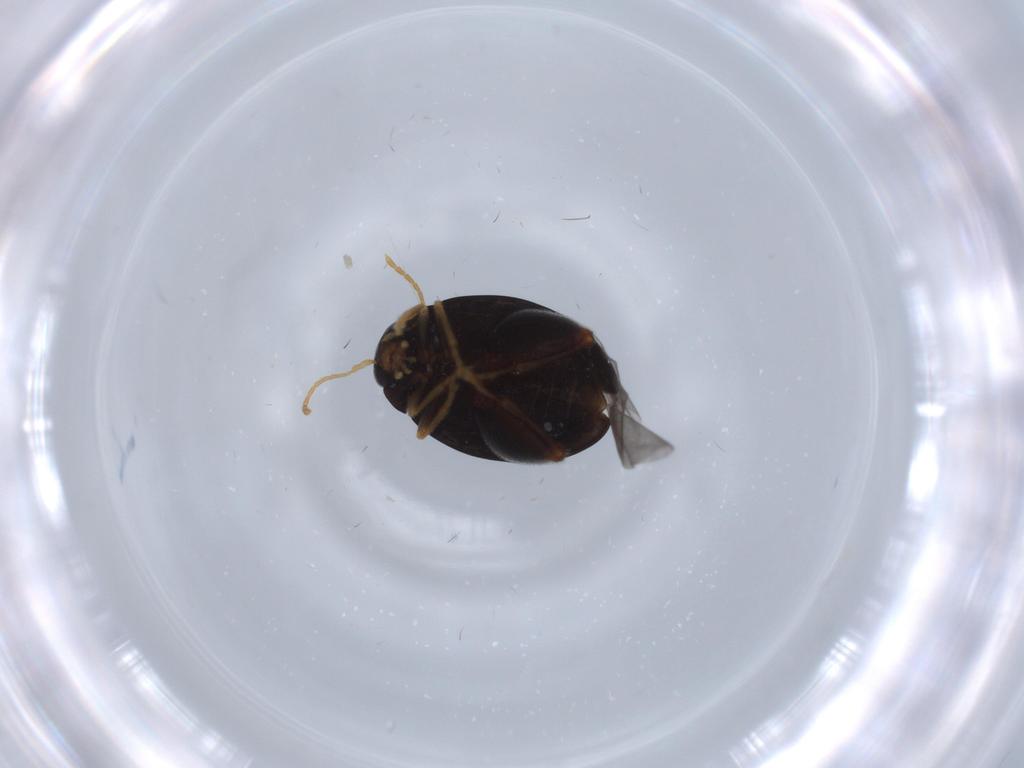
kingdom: Animalia
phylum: Arthropoda
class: Insecta
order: Coleoptera
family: Chrysomelidae
